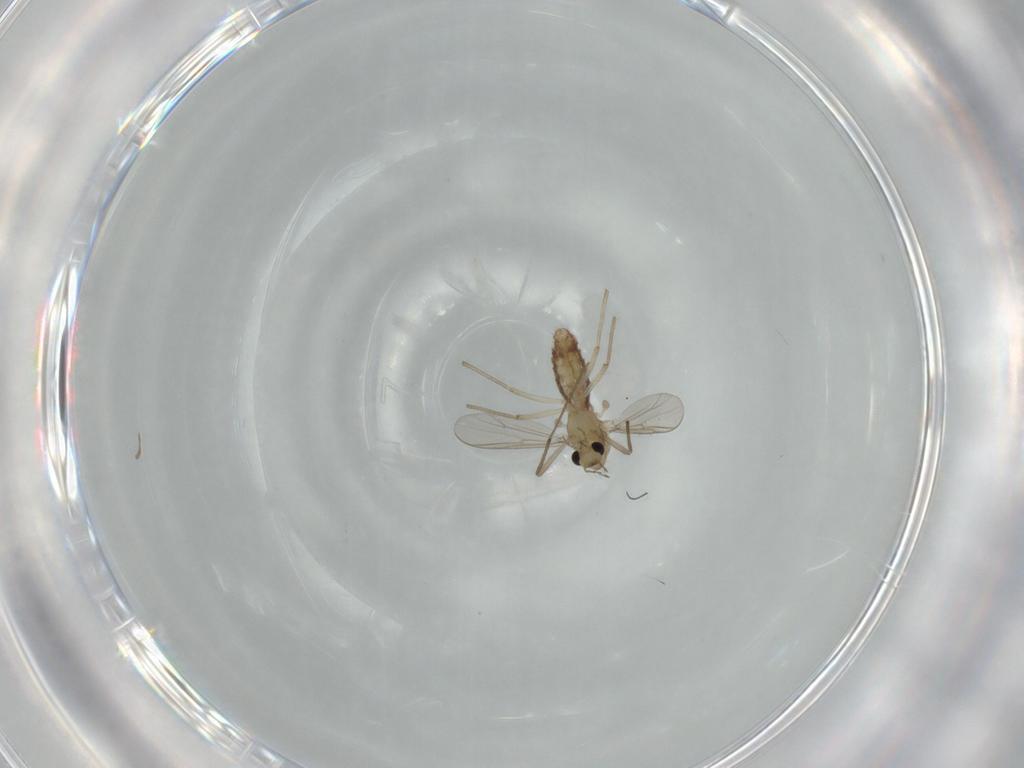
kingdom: Animalia
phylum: Arthropoda
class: Insecta
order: Diptera
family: Chironomidae
